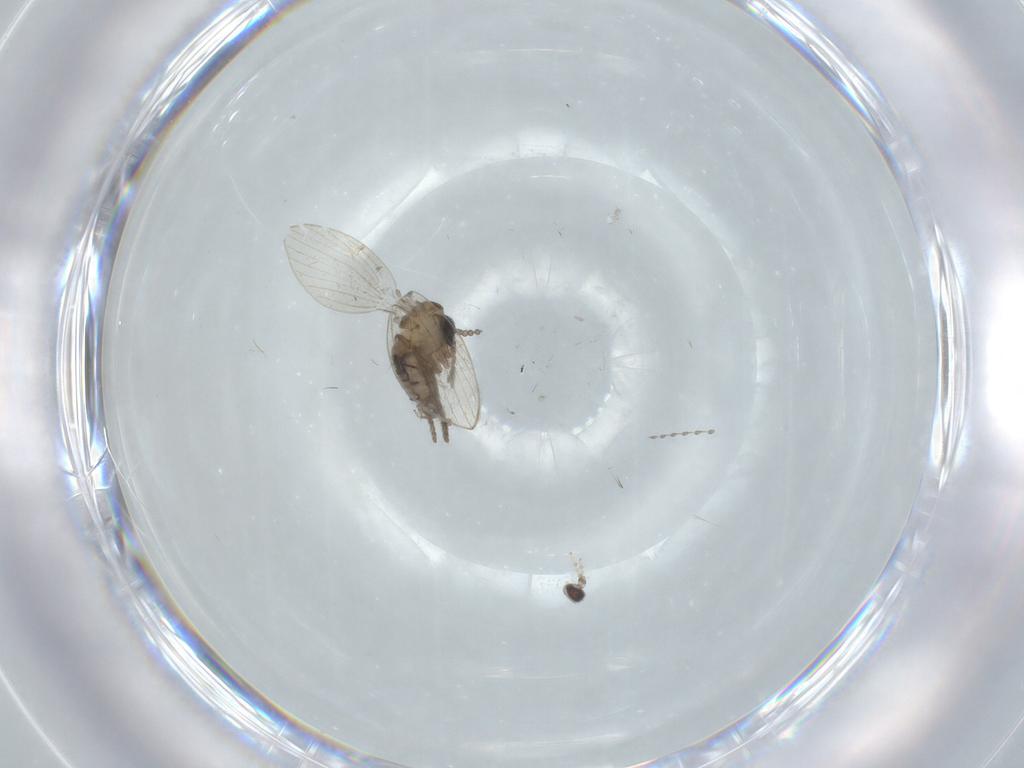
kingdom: Animalia
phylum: Arthropoda
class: Insecta
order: Diptera
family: Psychodidae
